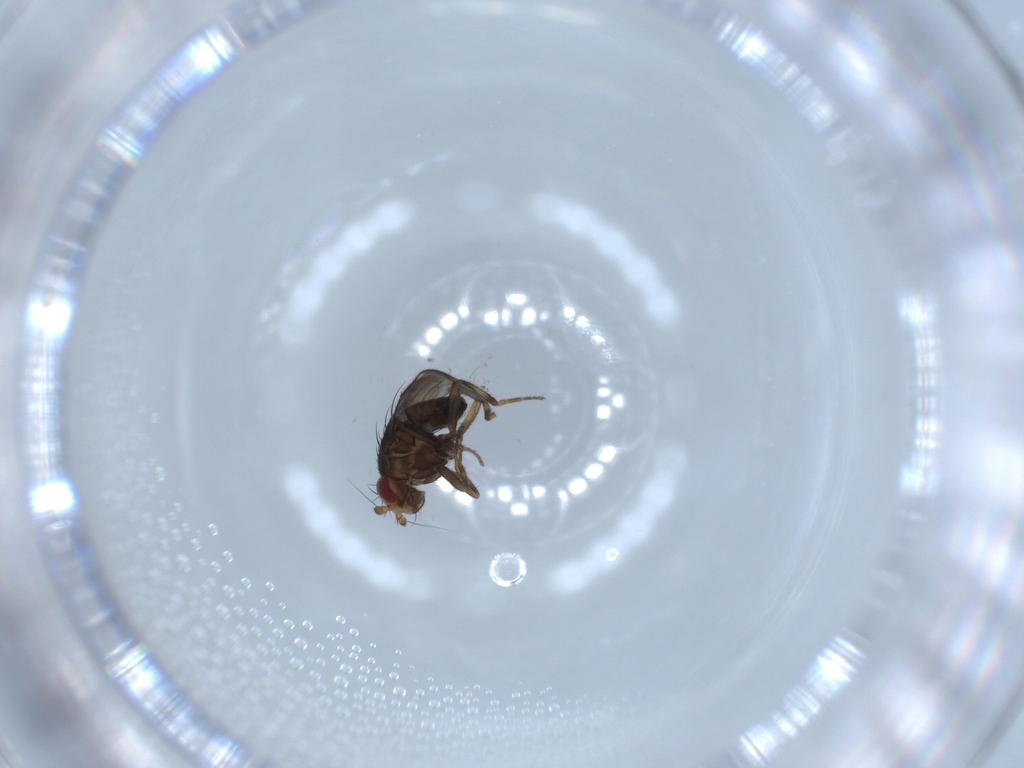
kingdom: Animalia
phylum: Arthropoda
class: Insecta
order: Diptera
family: Sphaeroceridae
